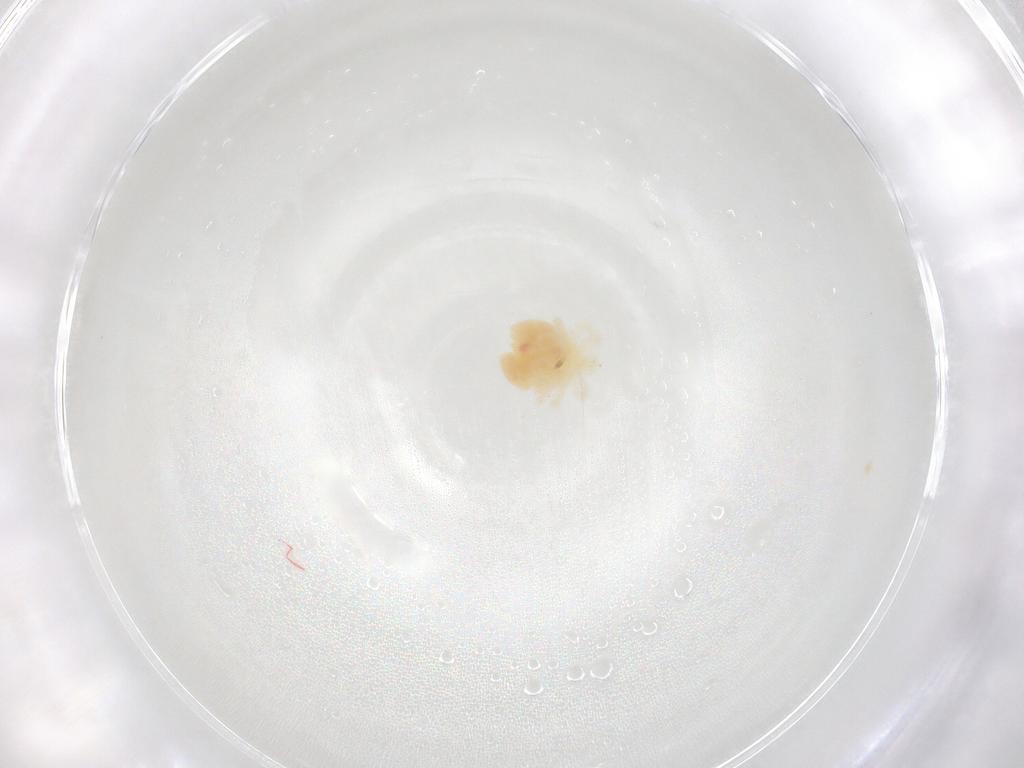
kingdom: Animalia
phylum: Arthropoda
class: Arachnida
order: Trombidiformes
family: Anystidae
